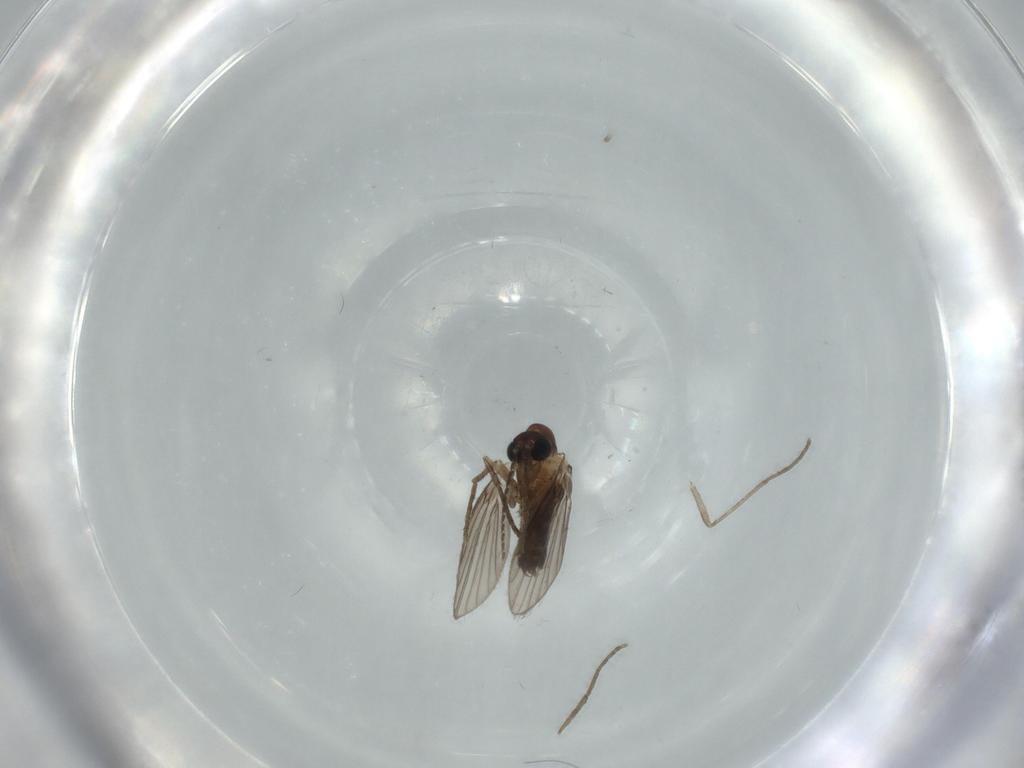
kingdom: Animalia
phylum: Arthropoda
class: Insecta
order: Diptera
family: Psychodidae
